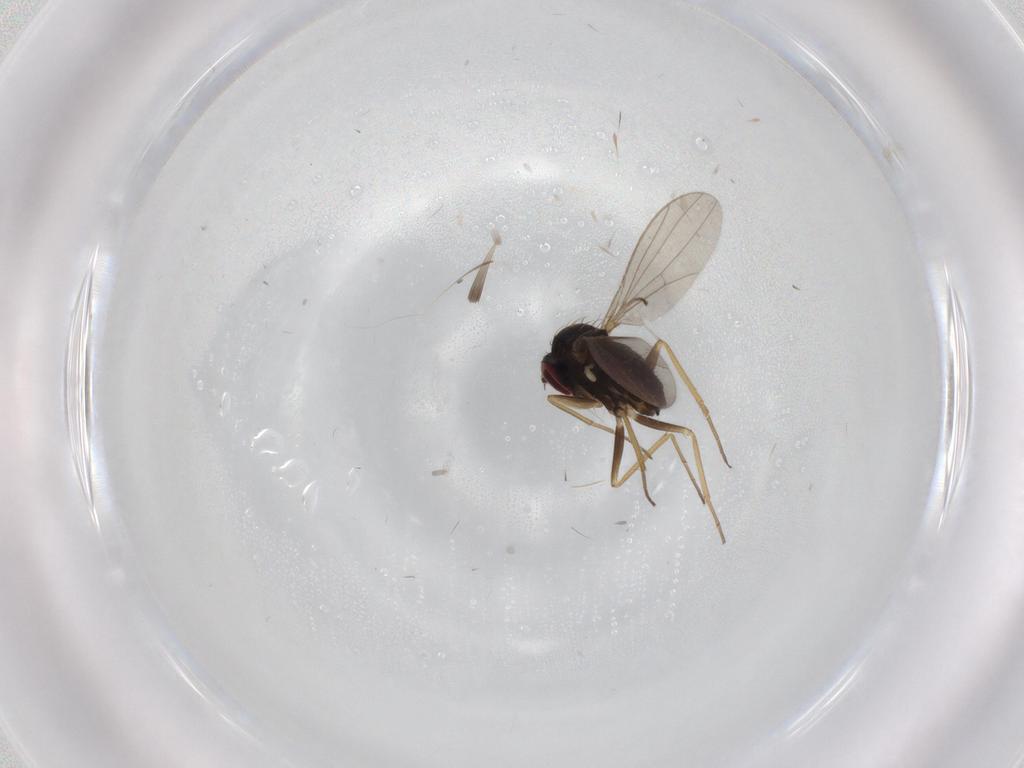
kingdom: Animalia
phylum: Arthropoda
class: Insecta
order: Diptera
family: Dolichopodidae
